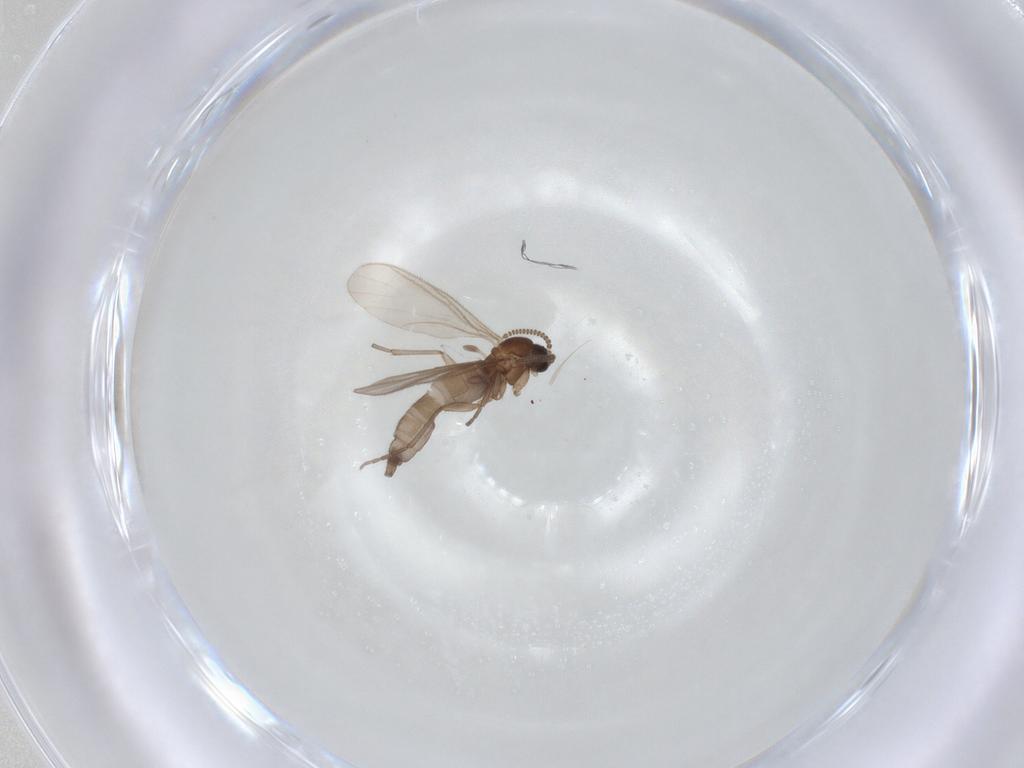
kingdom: Animalia
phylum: Arthropoda
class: Insecta
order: Diptera
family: Sciaridae
